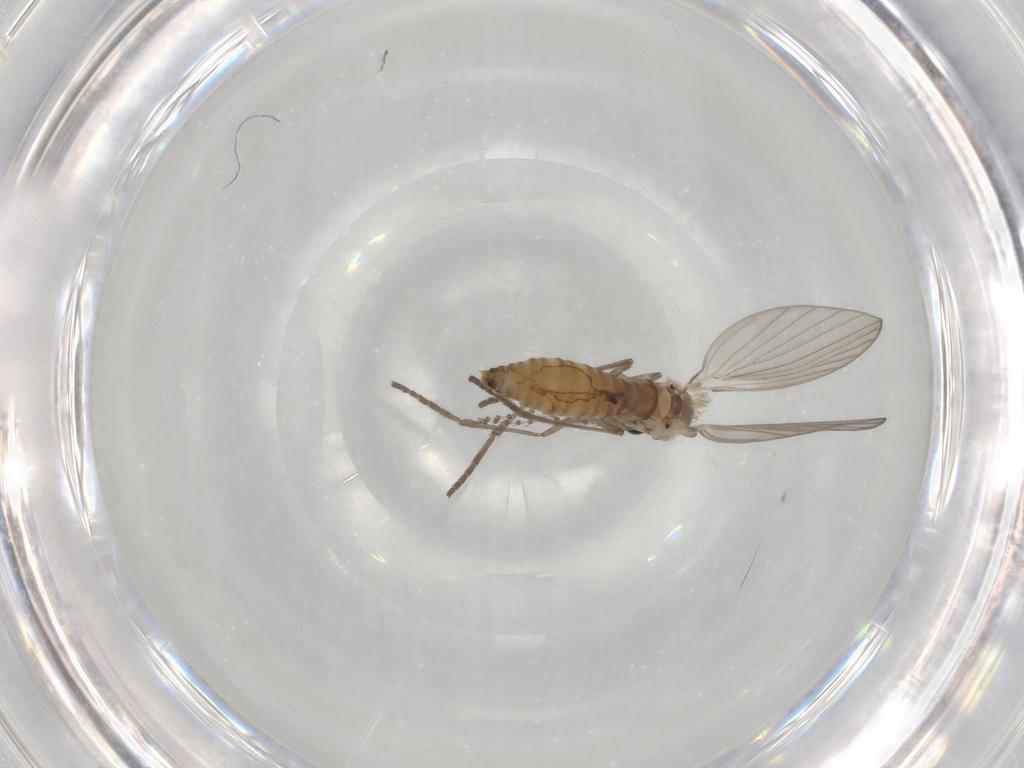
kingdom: Animalia
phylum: Arthropoda
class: Insecta
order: Diptera
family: Psychodidae
